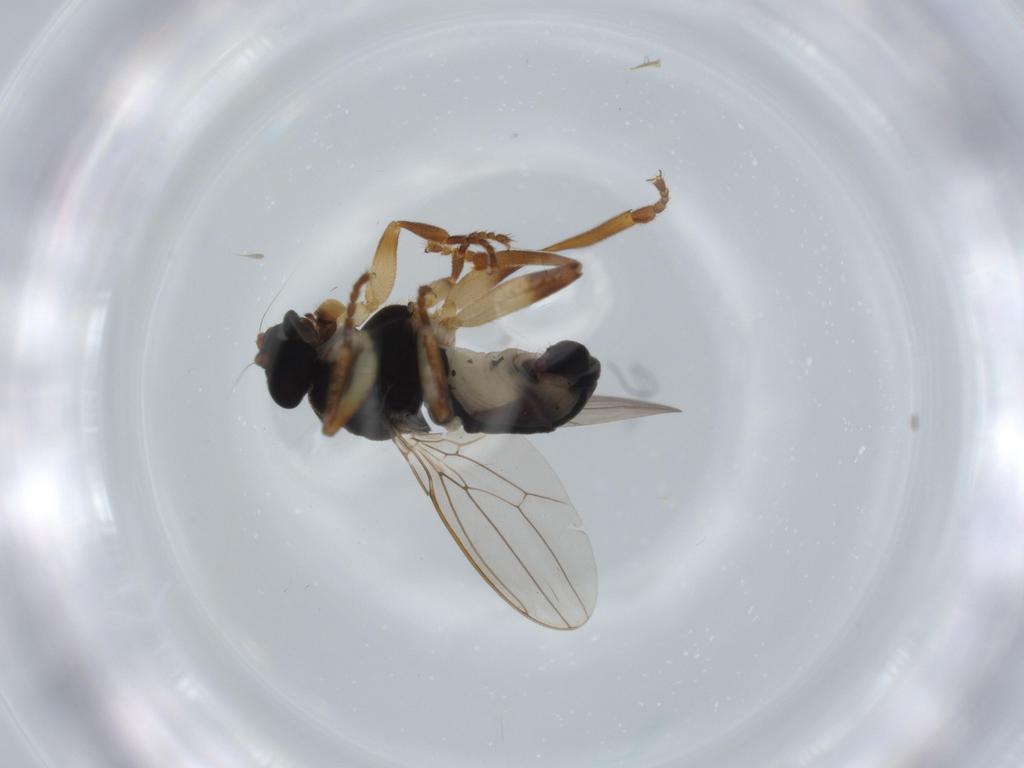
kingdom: Animalia
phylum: Arthropoda
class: Insecta
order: Diptera
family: Sphaeroceridae
